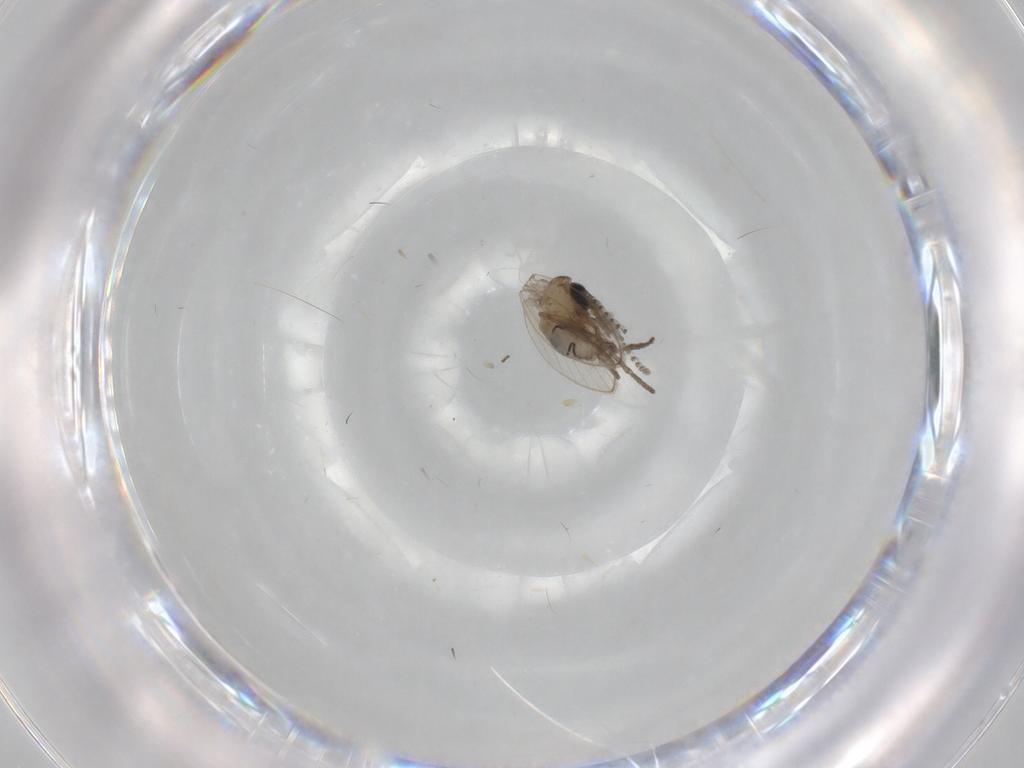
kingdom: Animalia
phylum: Arthropoda
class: Insecta
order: Diptera
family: Psychodidae
